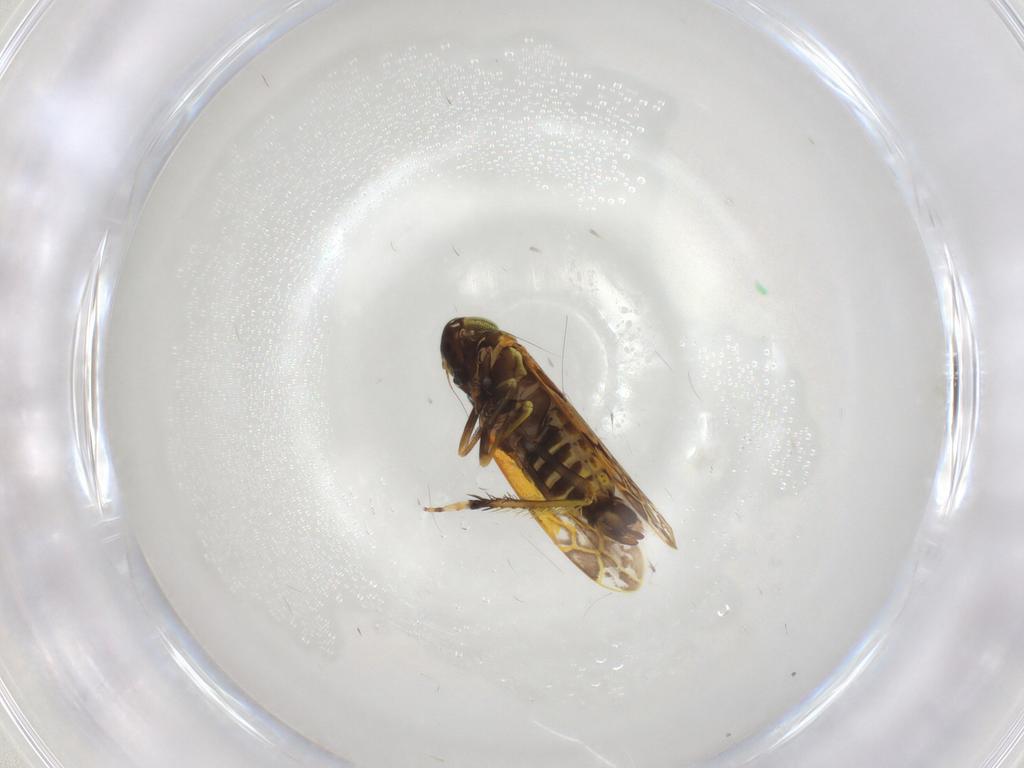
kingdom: Animalia
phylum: Arthropoda
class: Insecta
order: Hemiptera
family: Cicadellidae
